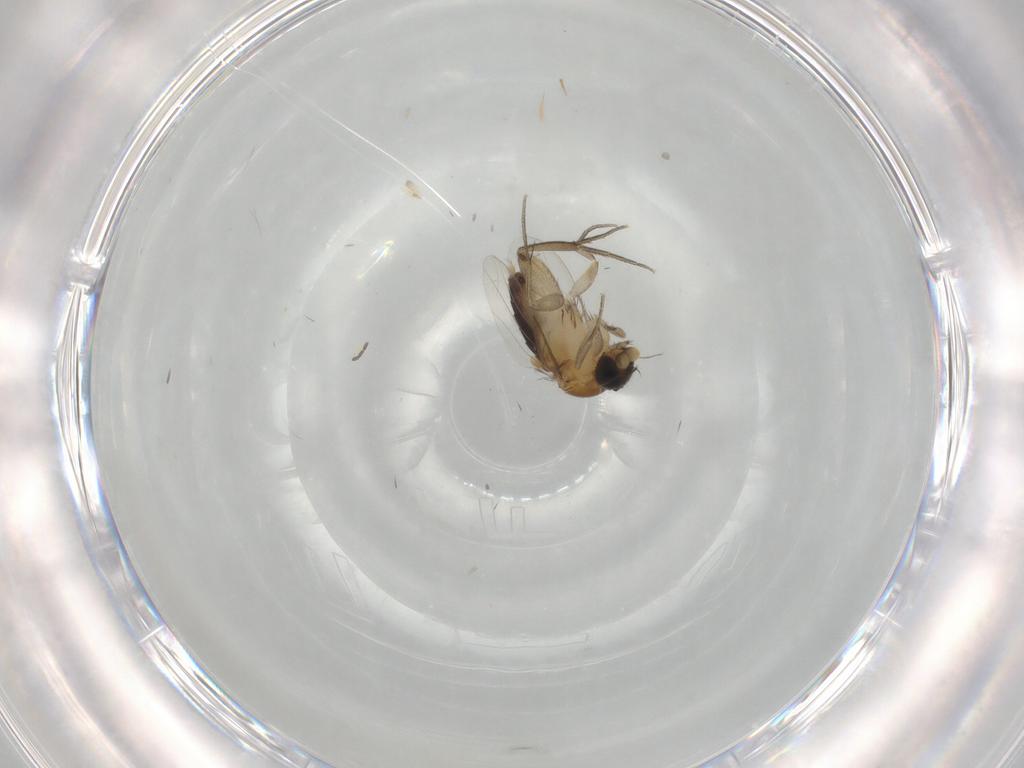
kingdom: Animalia
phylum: Arthropoda
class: Insecta
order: Diptera
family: Phoridae
